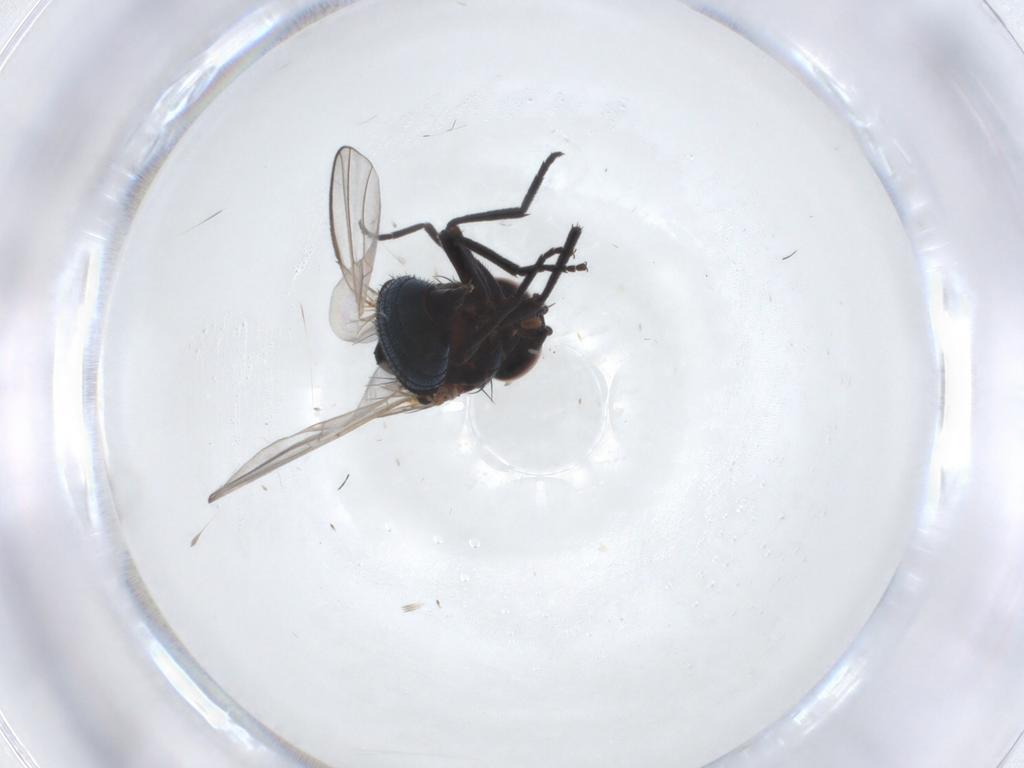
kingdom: Animalia
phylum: Arthropoda
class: Insecta
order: Diptera
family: Agromyzidae
